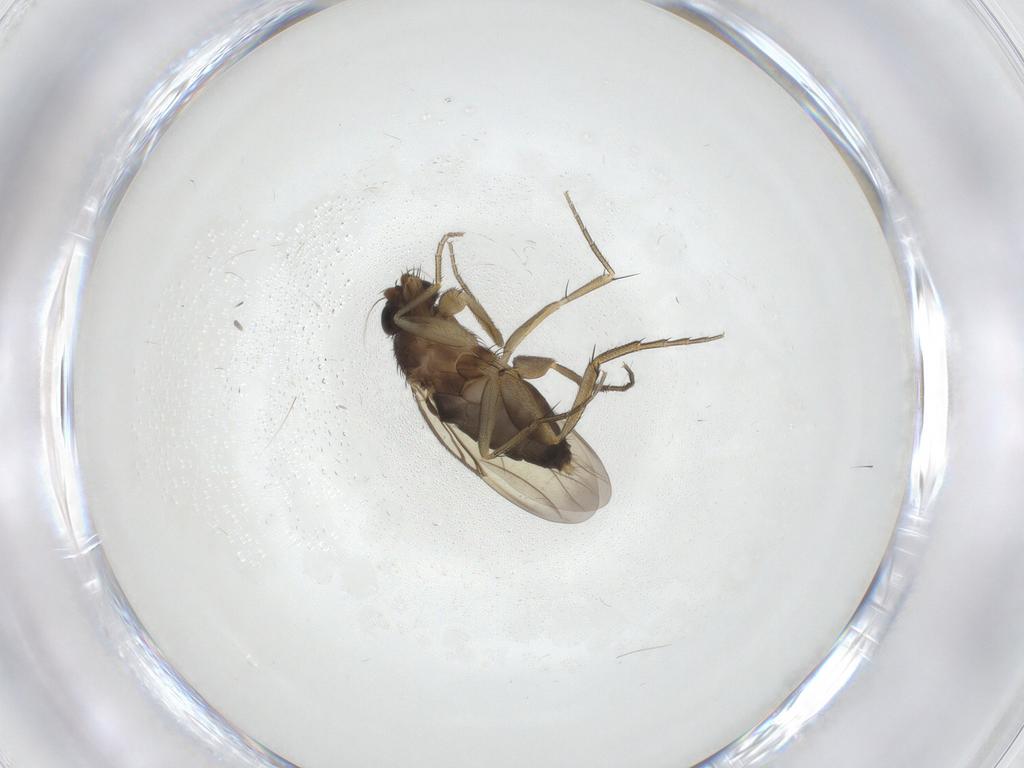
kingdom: Animalia
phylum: Arthropoda
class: Insecta
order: Diptera
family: Phoridae
